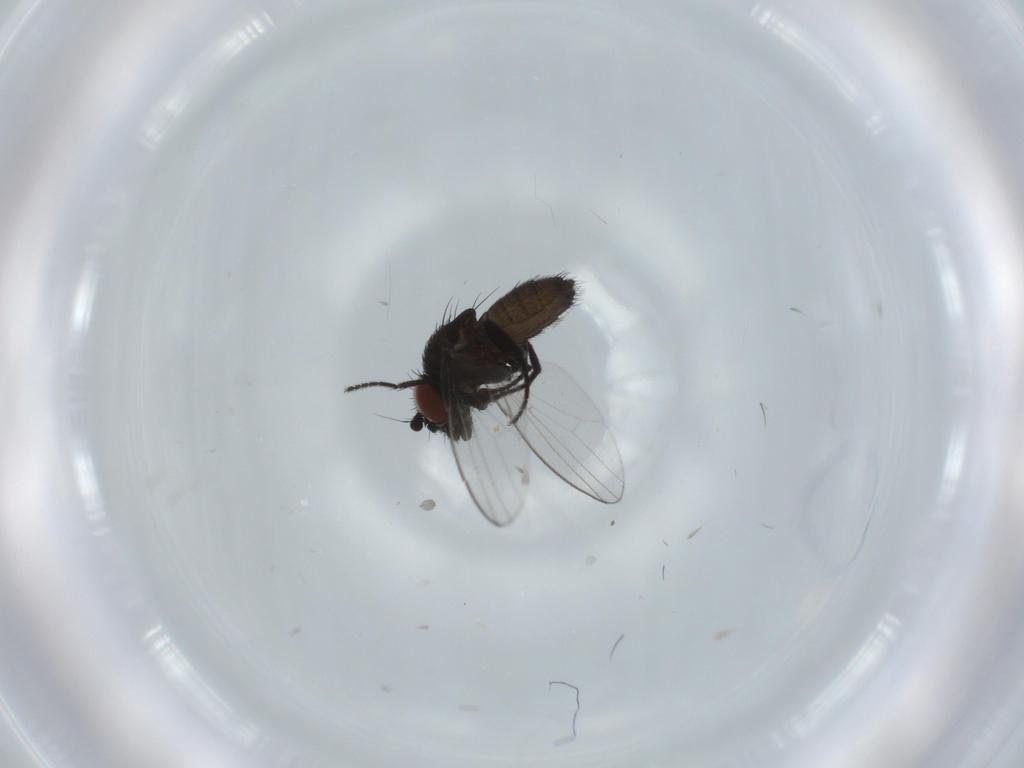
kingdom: Animalia
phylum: Arthropoda
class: Insecta
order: Diptera
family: Milichiidae
